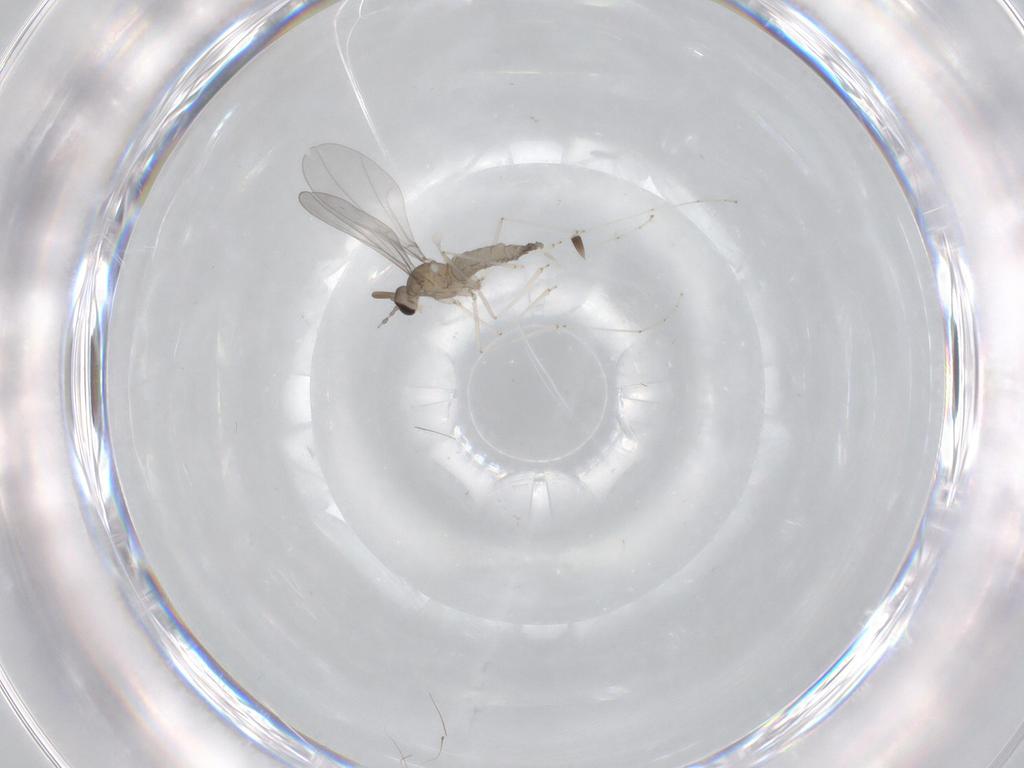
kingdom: Animalia
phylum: Arthropoda
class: Insecta
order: Diptera
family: Cecidomyiidae
